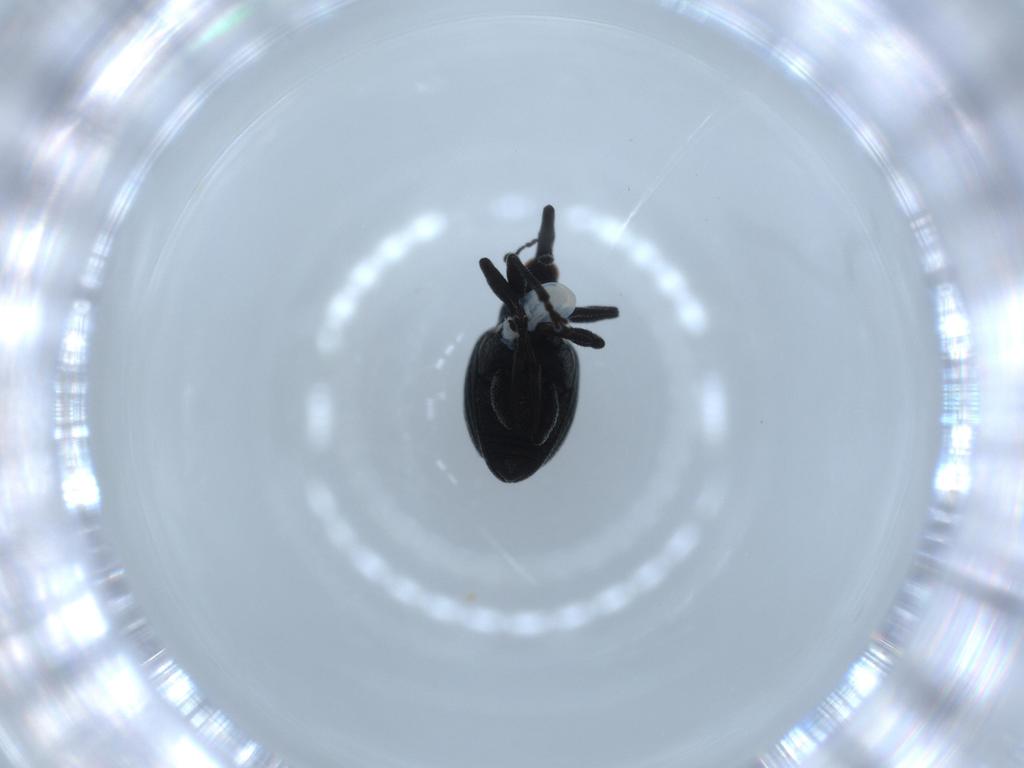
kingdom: Animalia
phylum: Arthropoda
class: Insecta
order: Coleoptera
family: Brentidae
